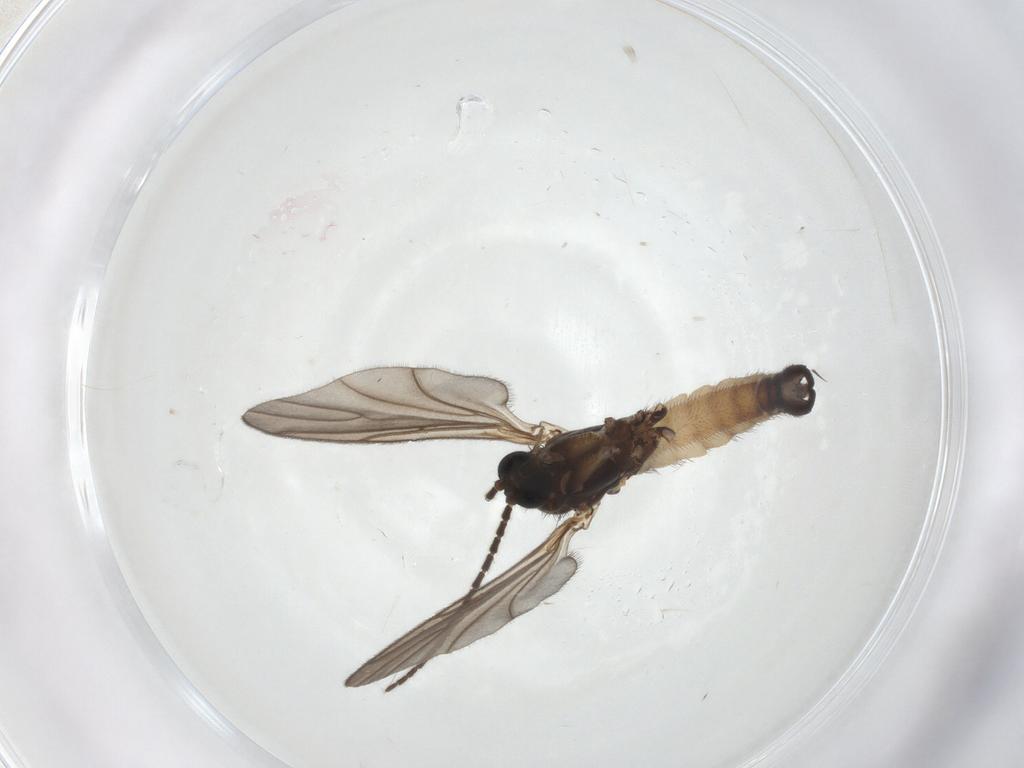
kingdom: Animalia
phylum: Arthropoda
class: Insecta
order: Diptera
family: Sciaridae
